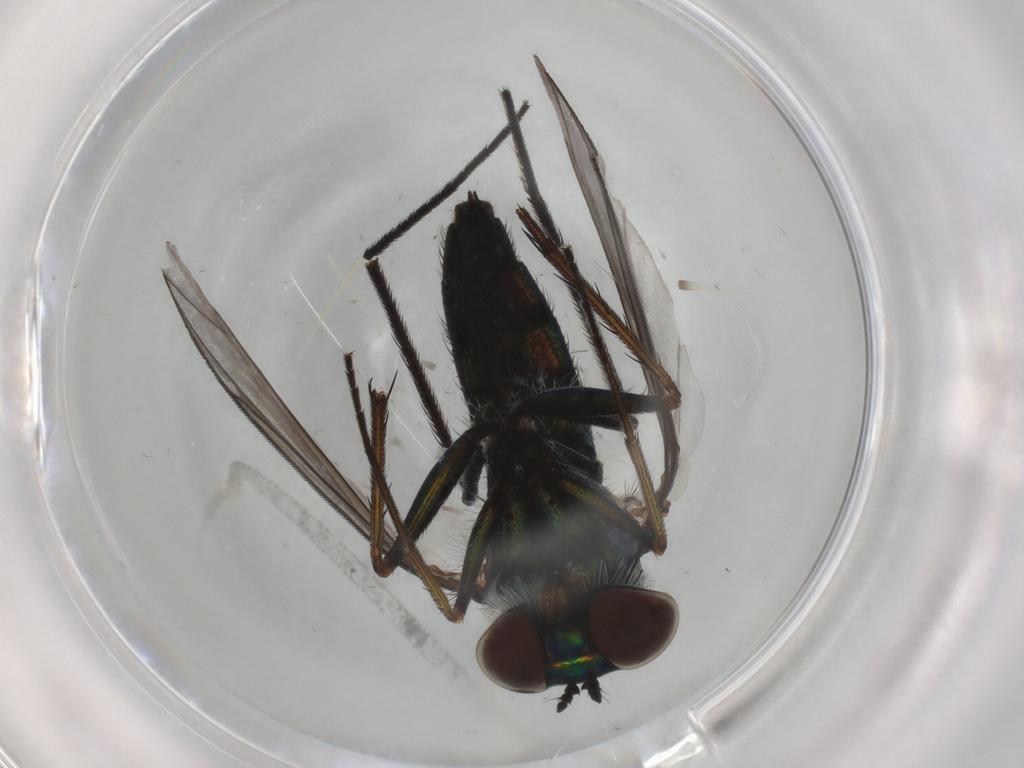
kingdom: Animalia
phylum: Arthropoda
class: Insecta
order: Diptera
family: Dolichopodidae
